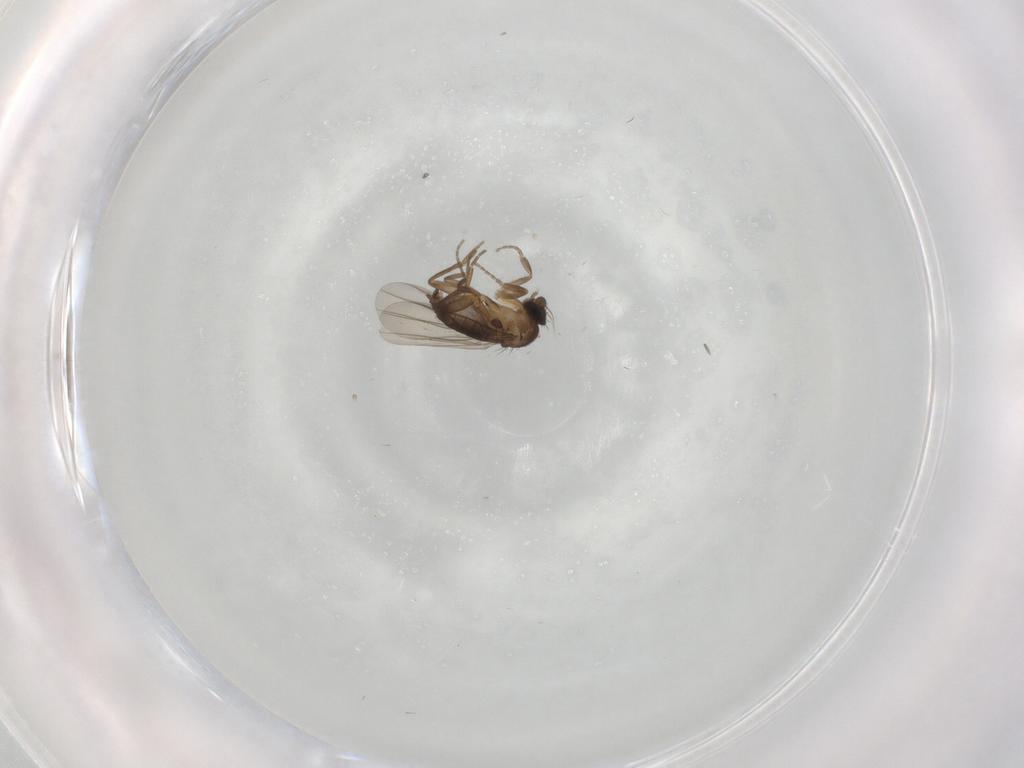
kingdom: Animalia
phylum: Arthropoda
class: Insecta
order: Diptera
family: Phoridae
